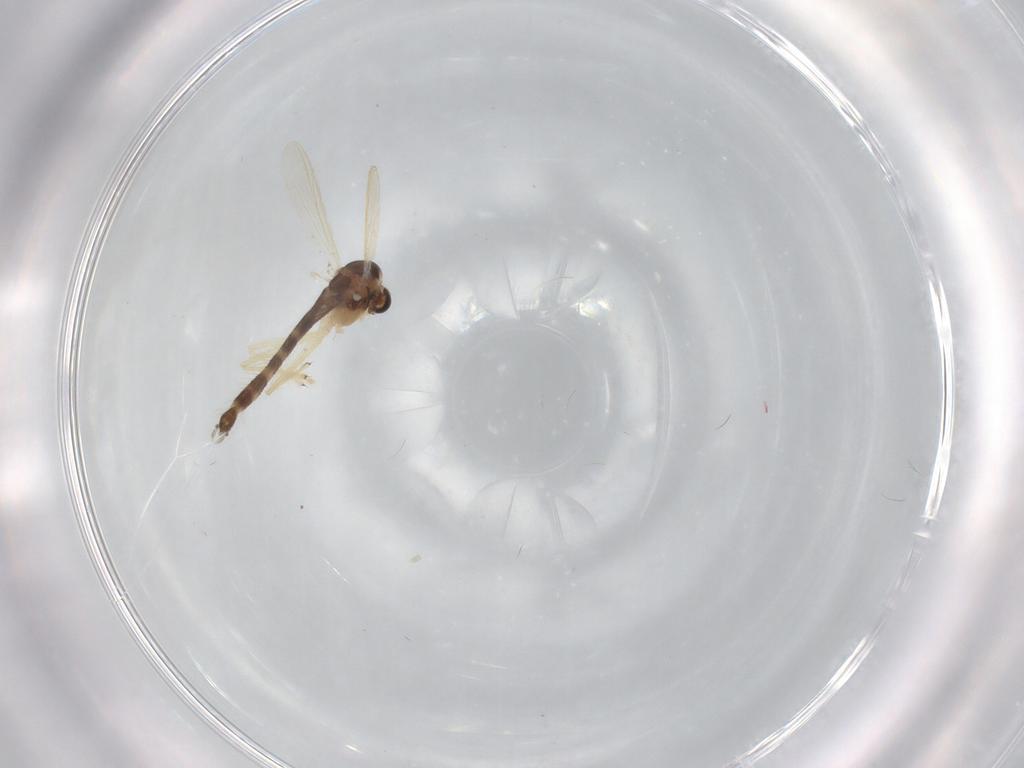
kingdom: Animalia
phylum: Arthropoda
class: Insecta
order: Diptera
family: Chironomidae
